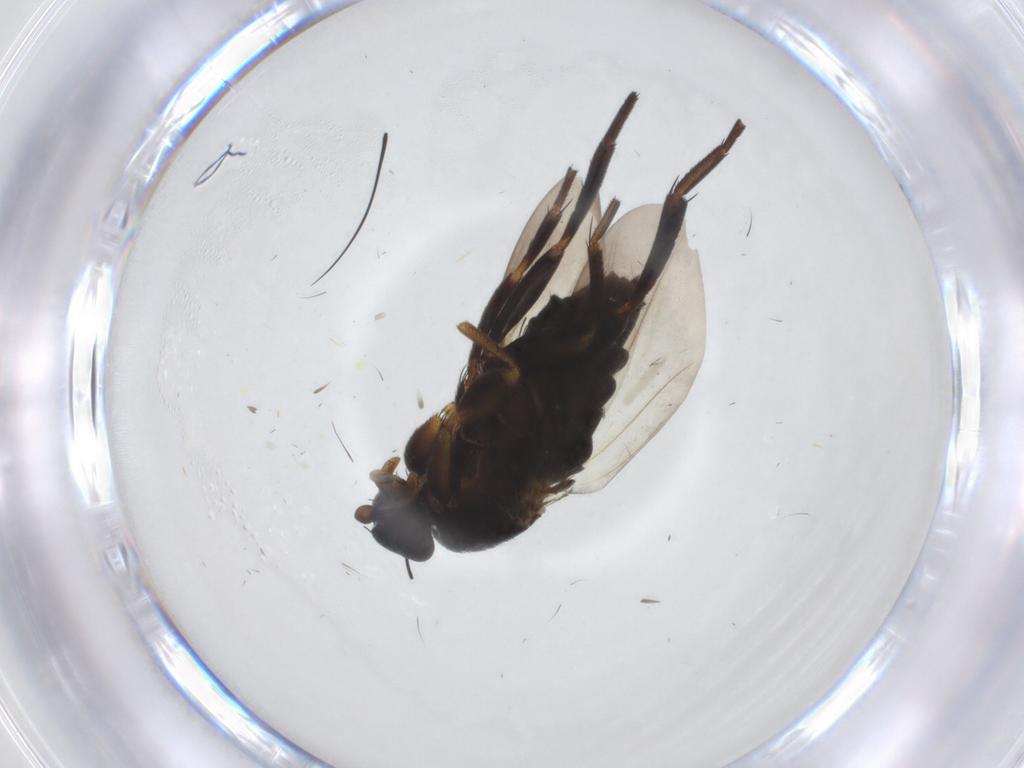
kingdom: Animalia
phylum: Arthropoda
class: Insecta
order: Diptera
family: Phoridae
